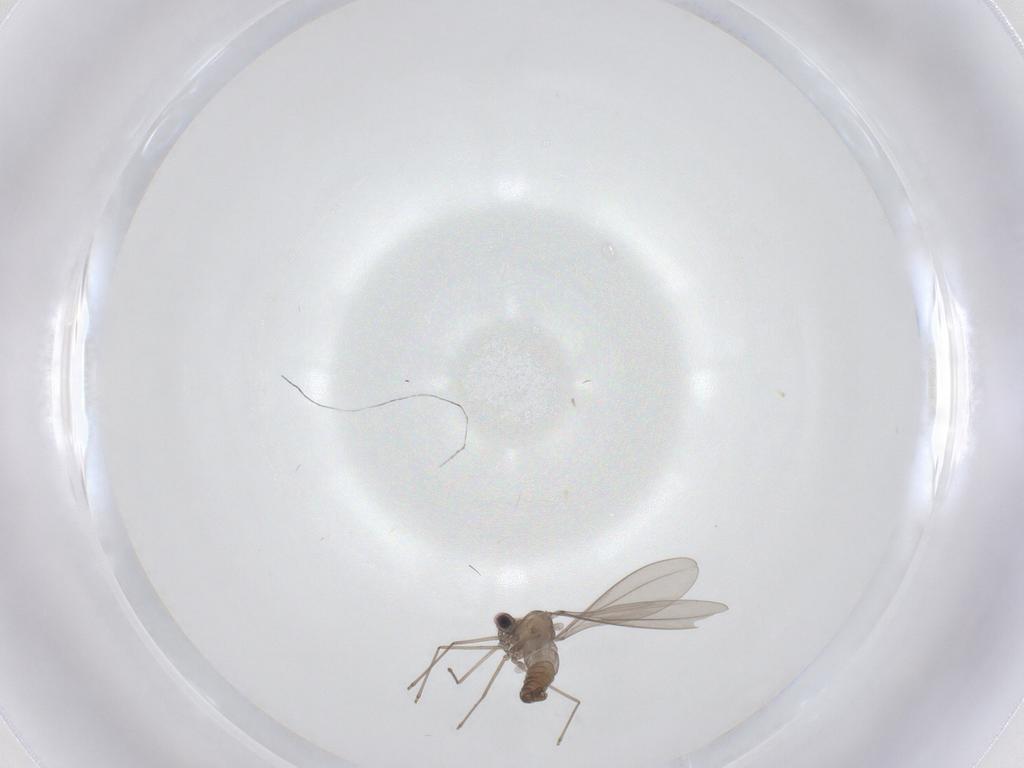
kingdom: Animalia
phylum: Arthropoda
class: Insecta
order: Diptera
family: Cecidomyiidae
